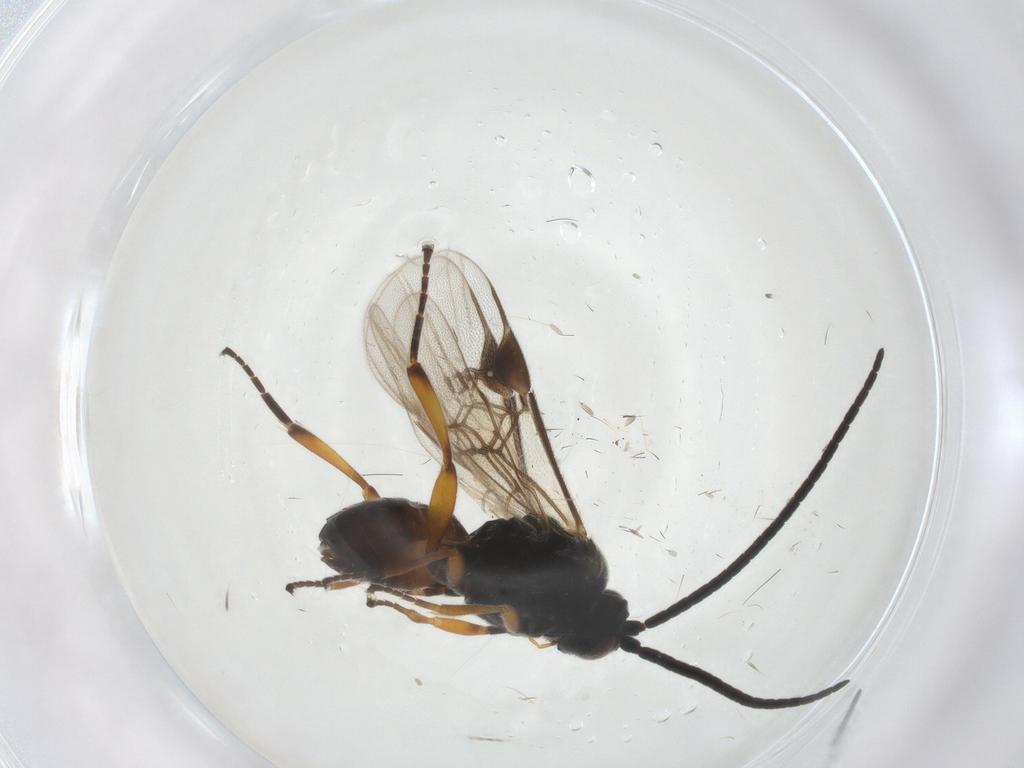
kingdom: Animalia
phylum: Arthropoda
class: Insecta
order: Hymenoptera
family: Braconidae
